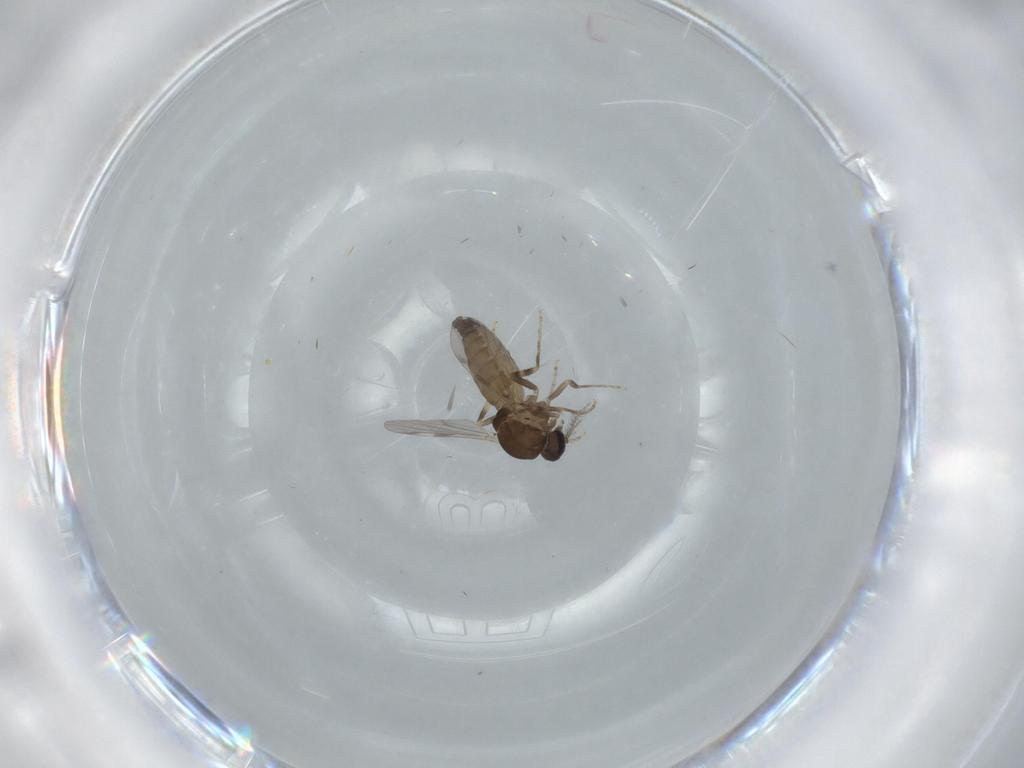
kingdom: Animalia
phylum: Arthropoda
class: Insecta
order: Diptera
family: Ceratopogonidae
